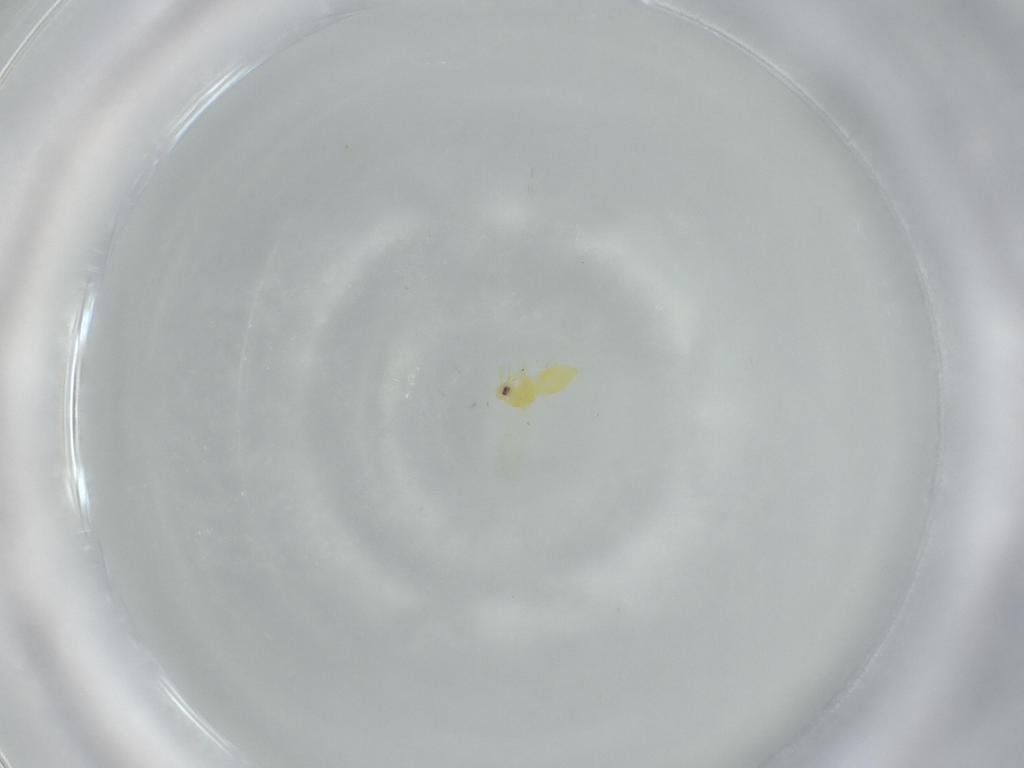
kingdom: Animalia
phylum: Arthropoda
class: Insecta
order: Hemiptera
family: Aleyrodidae
